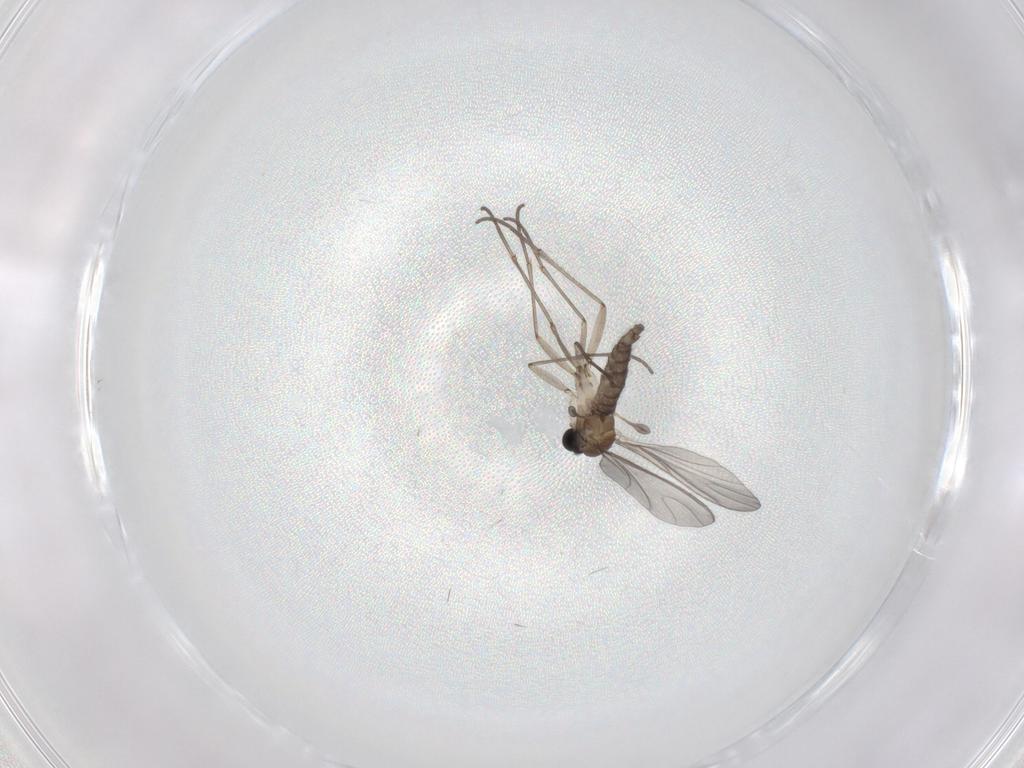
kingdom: Animalia
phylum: Arthropoda
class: Insecta
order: Diptera
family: Sciaridae
